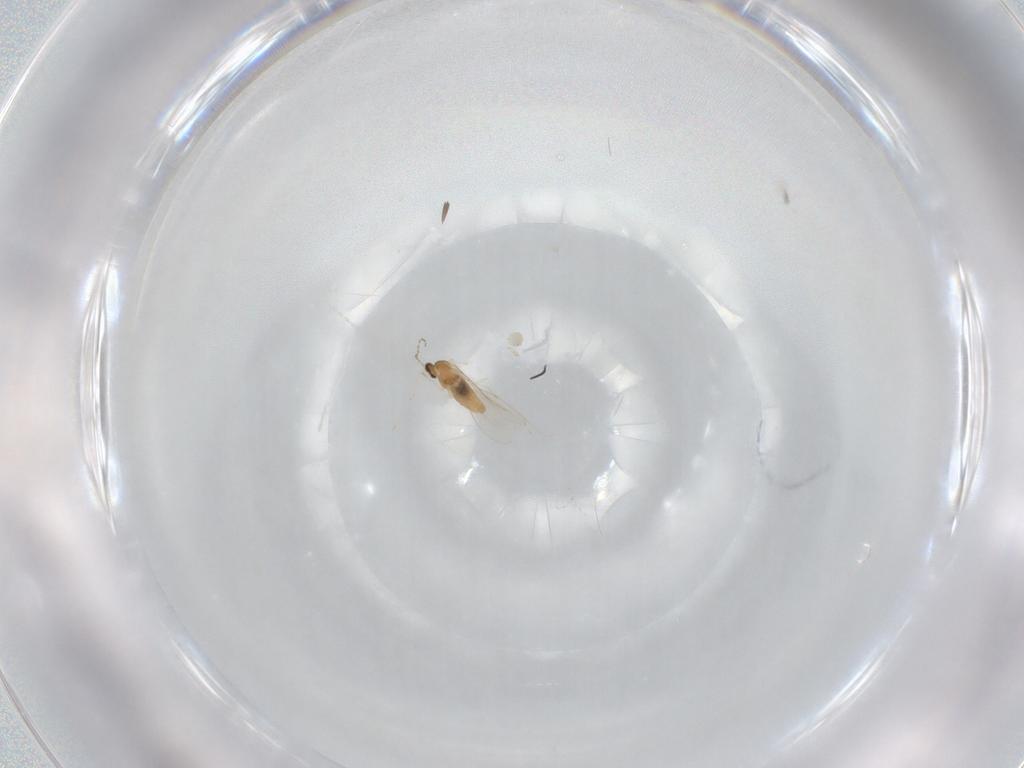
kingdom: Animalia
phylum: Arthropoda
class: Insecta
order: Diptera
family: Cecidomyiidae
